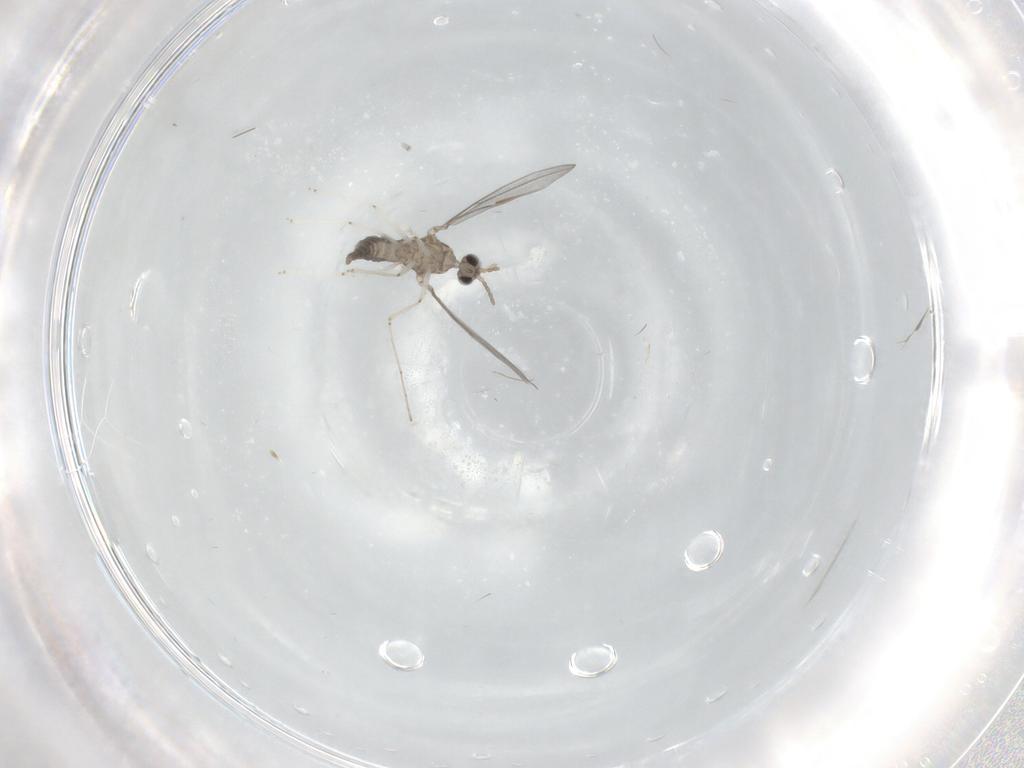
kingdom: Animalia
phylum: Arthropoda
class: Insecta
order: Diptera
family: Cecidomyiidae
